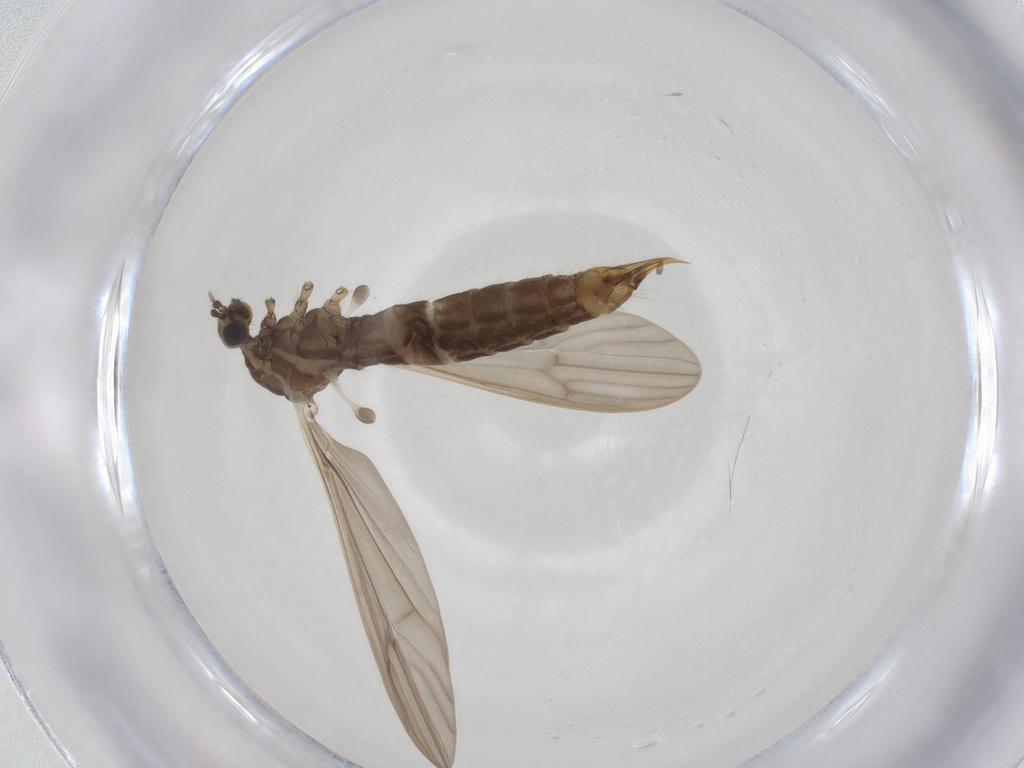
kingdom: Animalia
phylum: Arthropoda
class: Insecta
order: Diptera
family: Limoniidae
